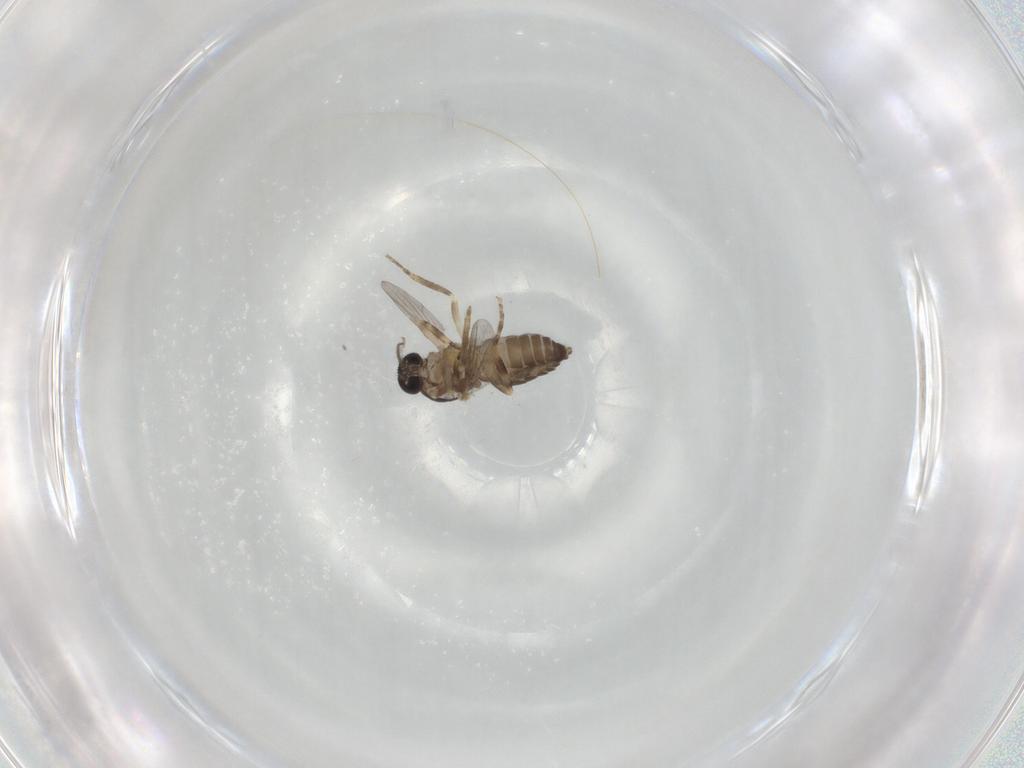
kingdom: Animalia
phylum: Arthropoda
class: Insecta
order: Diptera
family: Ceratopogonidae
